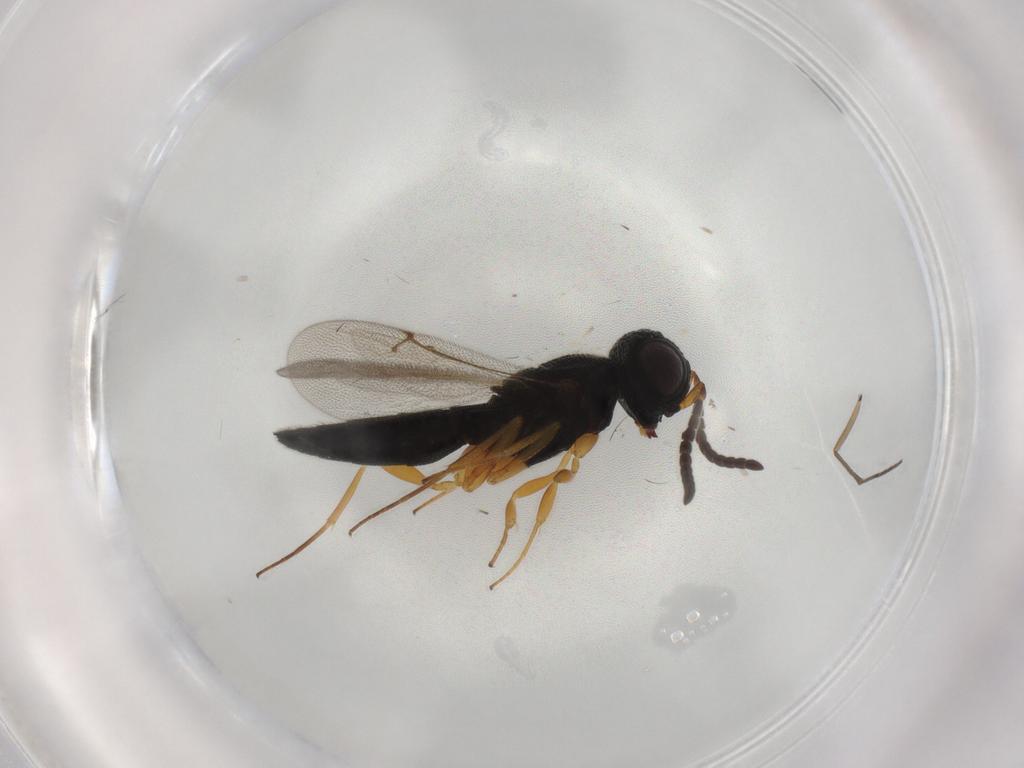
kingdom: Animalia
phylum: Arthropoda
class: Insecta
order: Hymenoptera
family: Scelionidae
